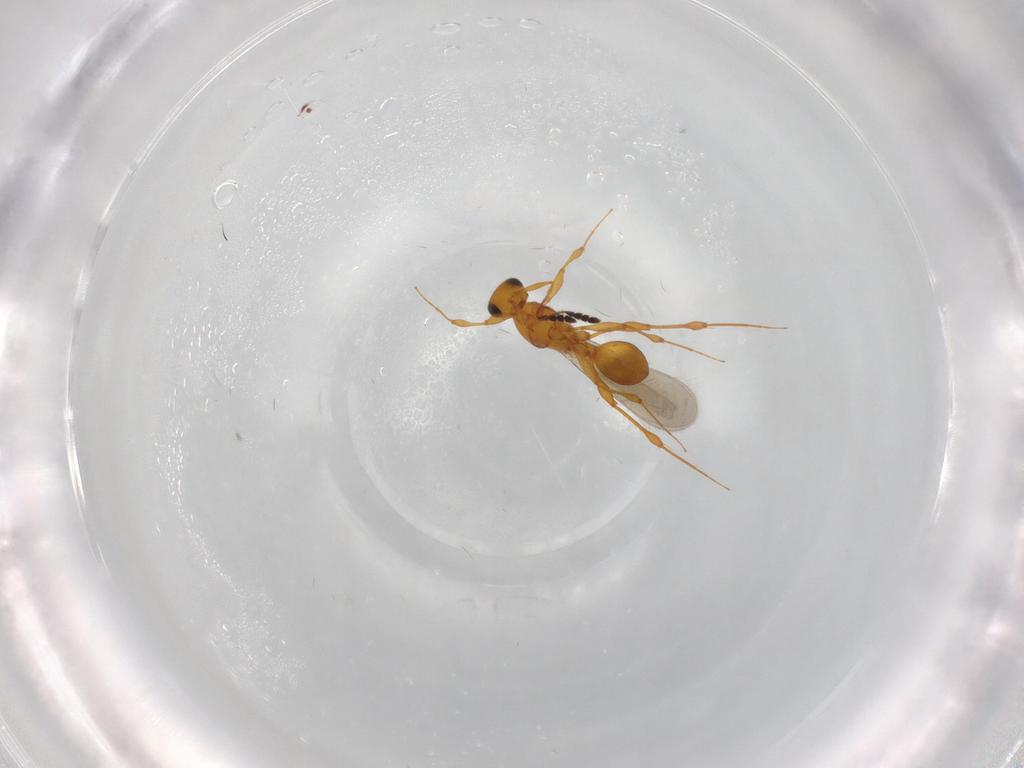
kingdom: Animalia
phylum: Arthropoda
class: Insecta
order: Hymenoptera
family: Platygastridae
